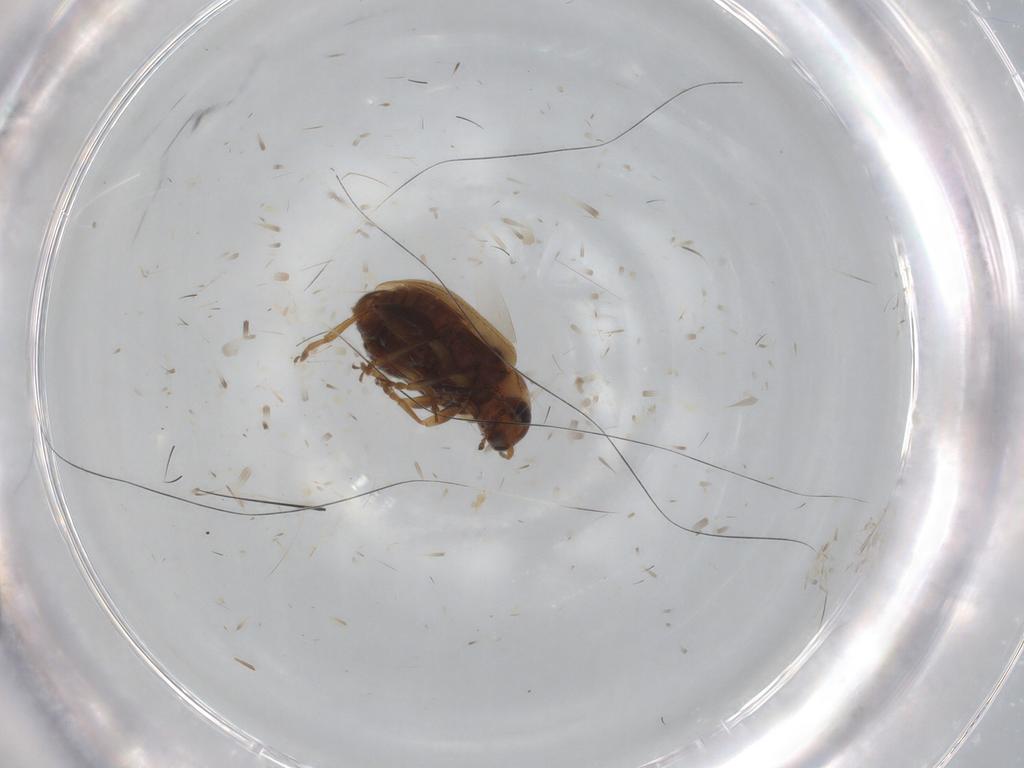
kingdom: Animalia
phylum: Arthropoda
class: Insecta
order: Coleoptera
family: Chrysomelidae
